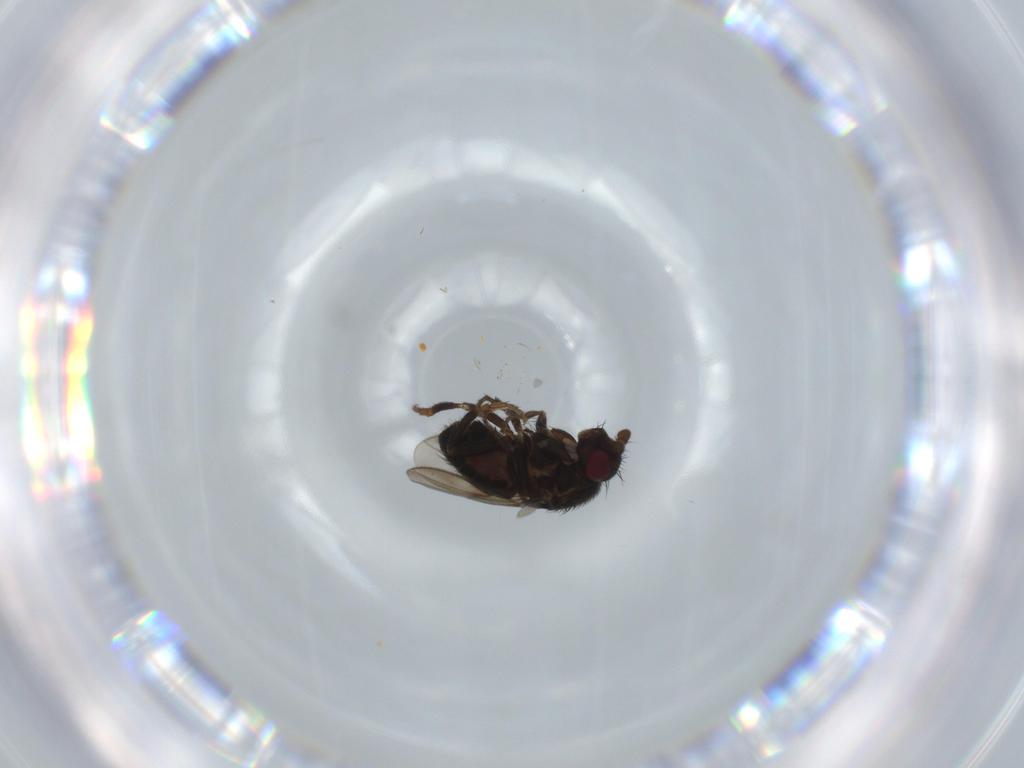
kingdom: Animalia
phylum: Arthropoda
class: Insecta
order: Diptera
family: Sphaeroceridae
